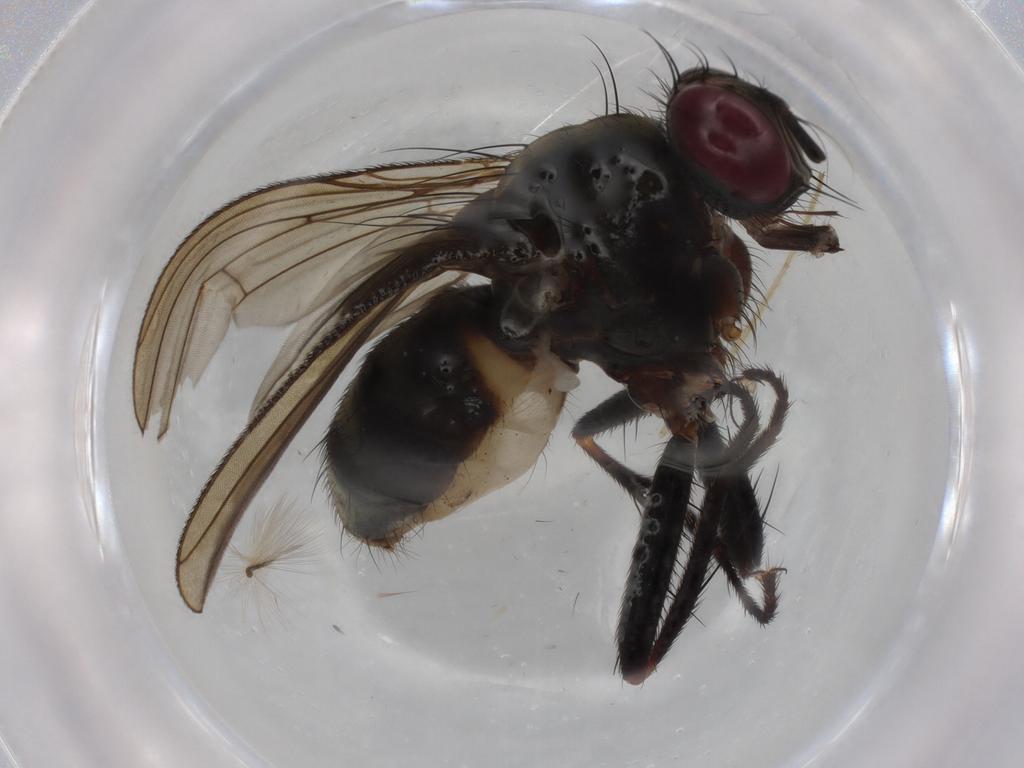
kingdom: Animalia
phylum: Arthropoda
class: Insecta
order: Diptera
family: Muscidae
